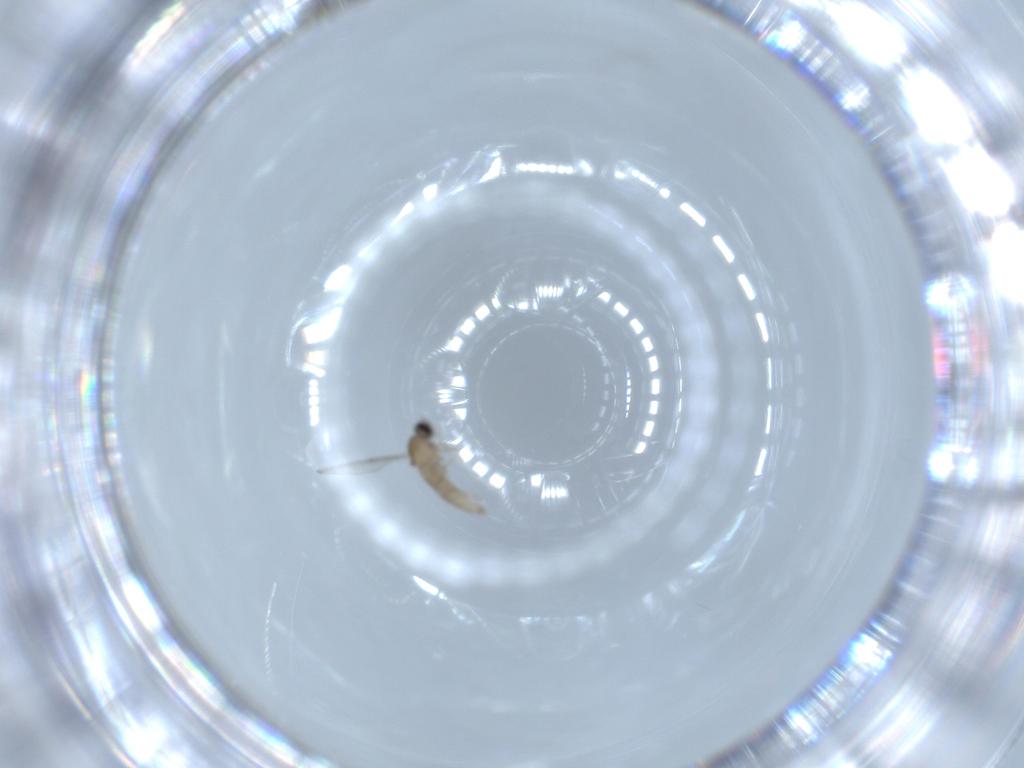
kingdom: Animalia
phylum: Arthropoda
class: Insecta
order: Diptera
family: Cecidomyiidae
